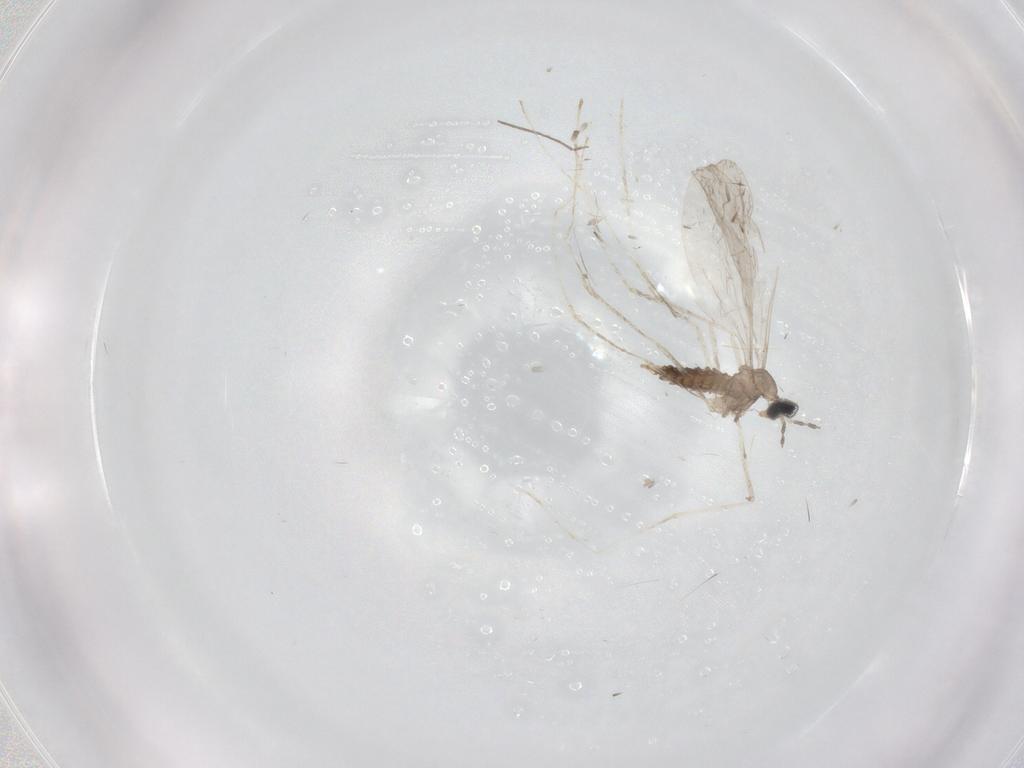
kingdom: Animalia
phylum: Arthropoda
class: Insecta
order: Diptera
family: Cecidomyiidae
